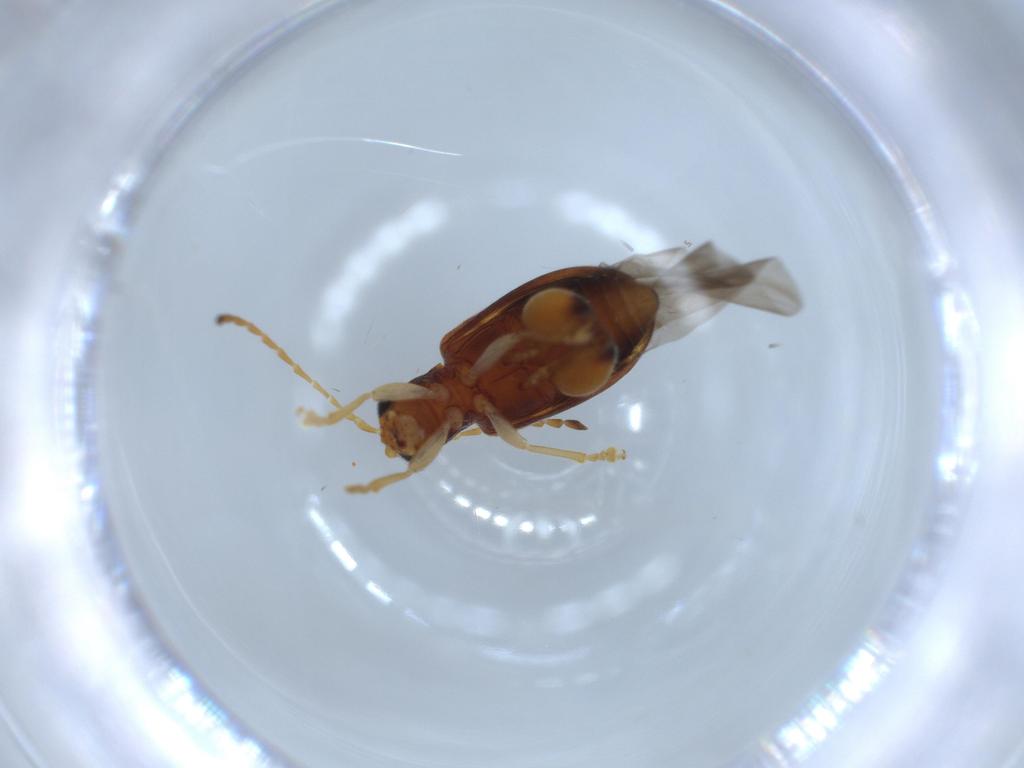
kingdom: Animalia
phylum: Arthropoda
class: Insecta
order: Coleoptera
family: Chrysomelidae
